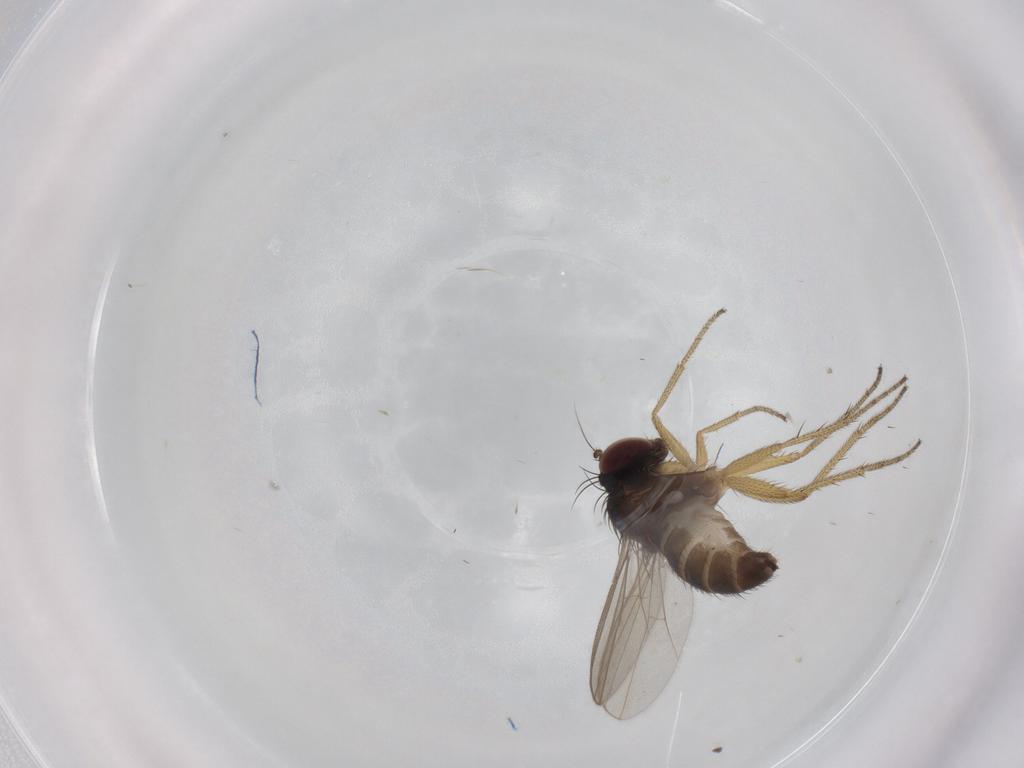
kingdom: Animalia
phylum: Arthropoda
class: Insecta
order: Diptera
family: Dolichopodidae
